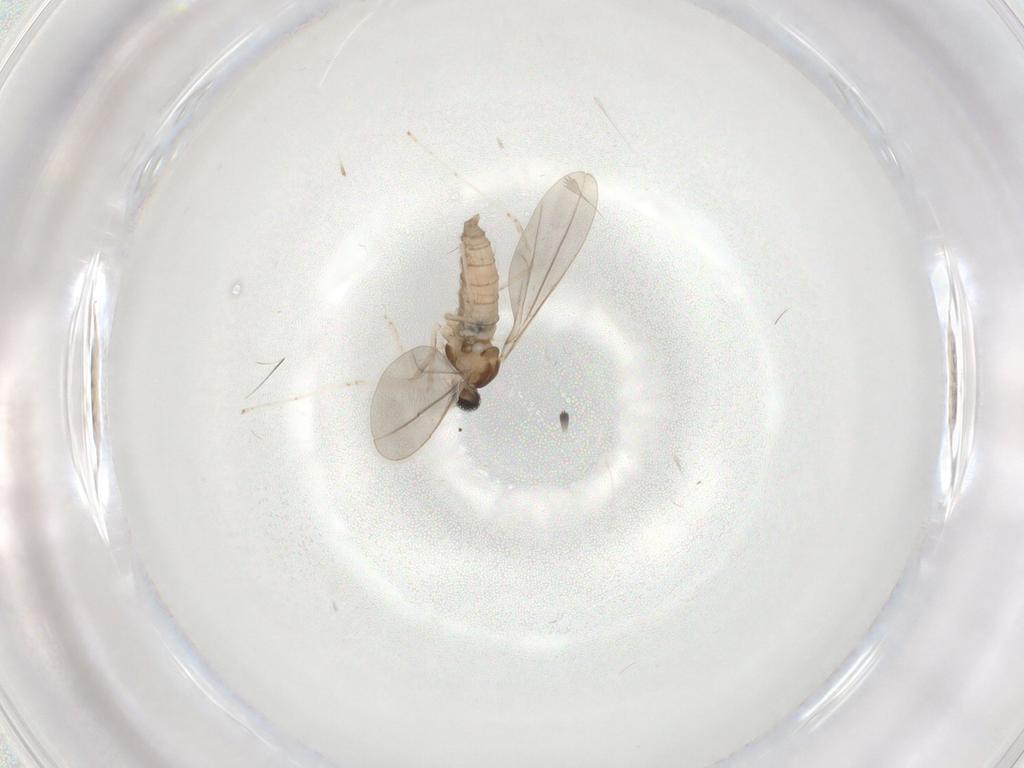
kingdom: Animalia
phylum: Arthropoda
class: Insecta
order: Diptera
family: Cecidomyiidae
